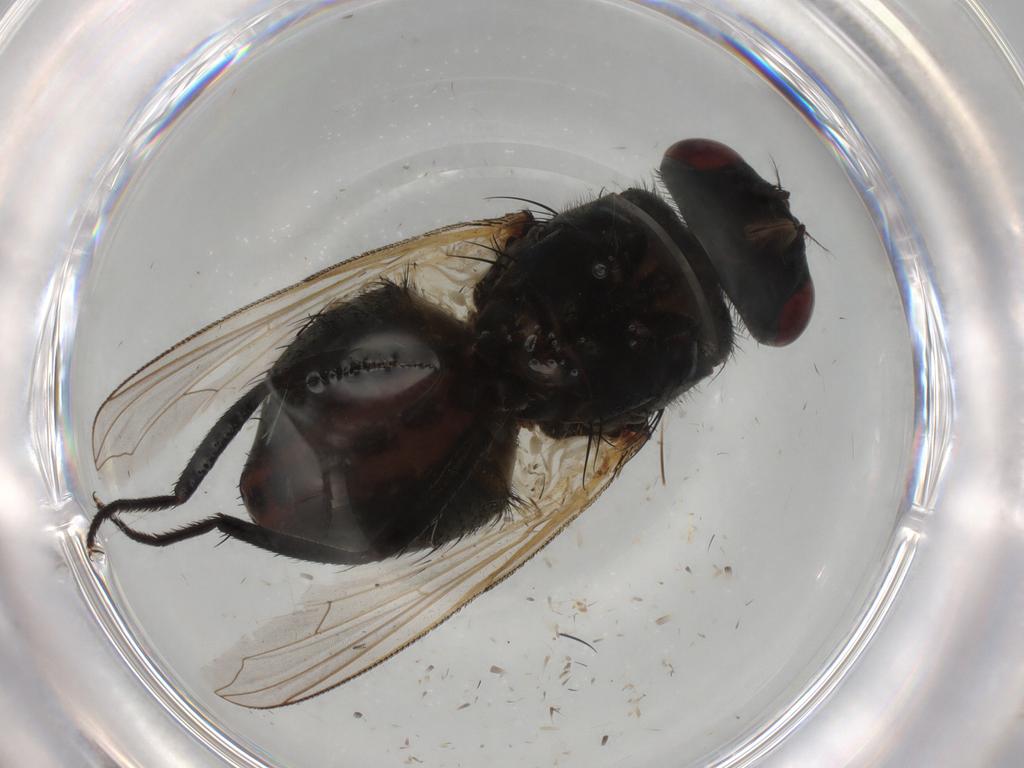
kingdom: Animalia
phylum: Arthropoda
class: Insecta
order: Diptera
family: Muscidae
